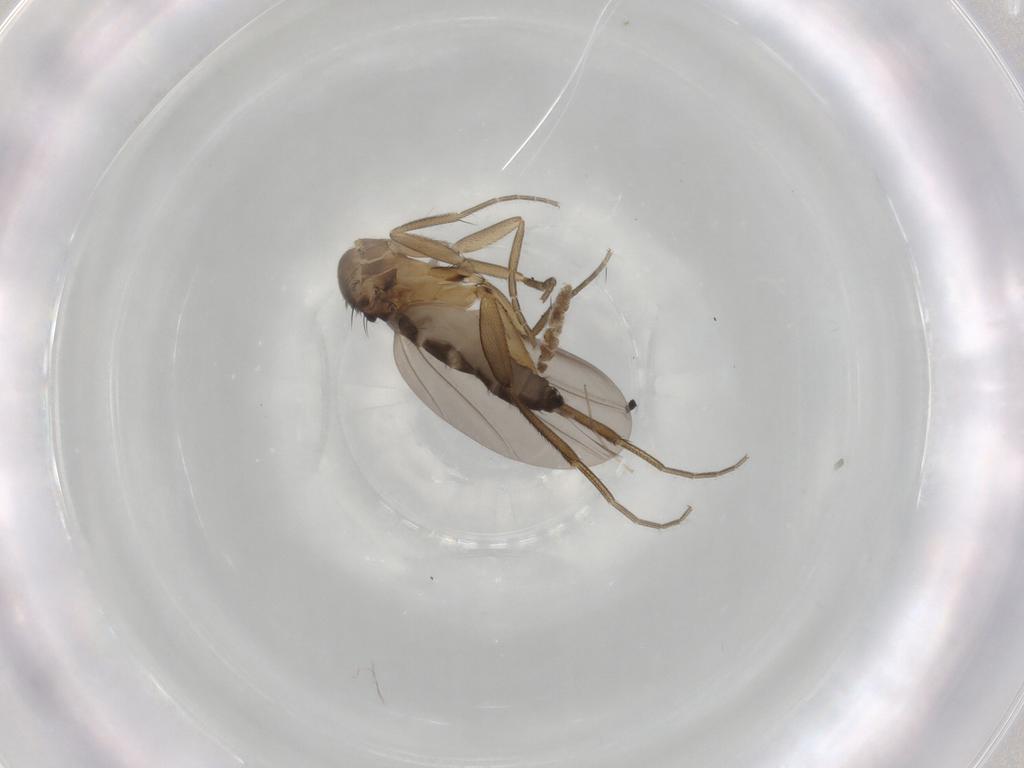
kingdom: Animalia
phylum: Arthropoda
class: Insecta
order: Diptera
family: Phoridae
